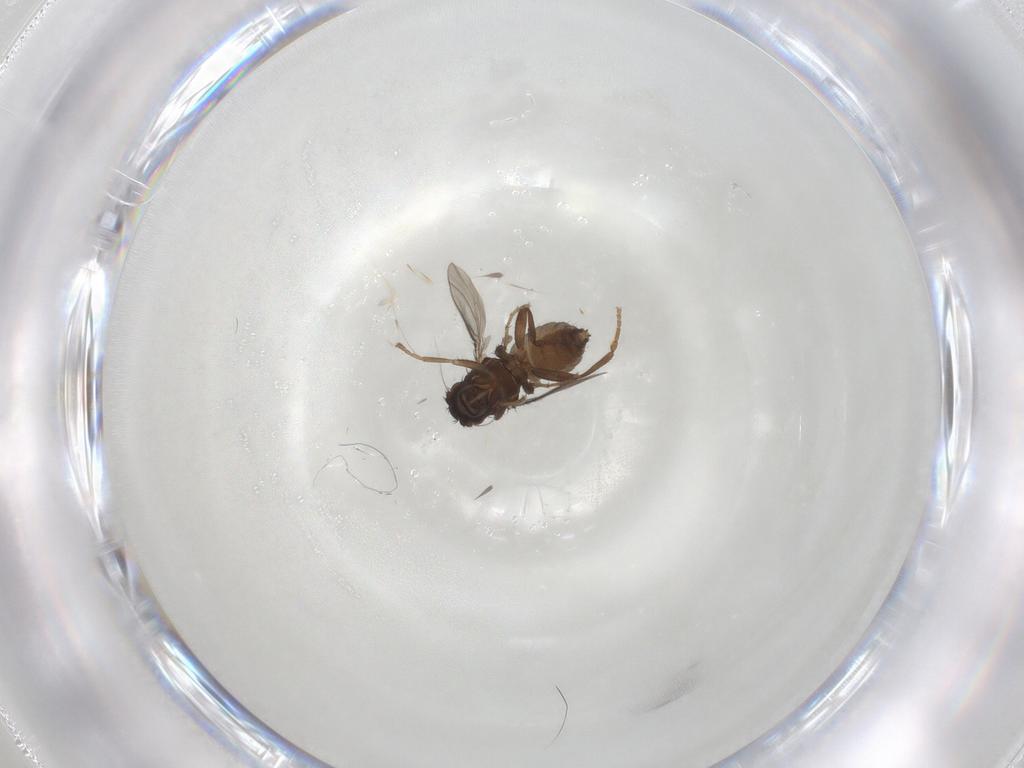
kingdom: Animalia
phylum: Arthropoda
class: Insecta
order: Diptera
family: Sphaeroceridae
